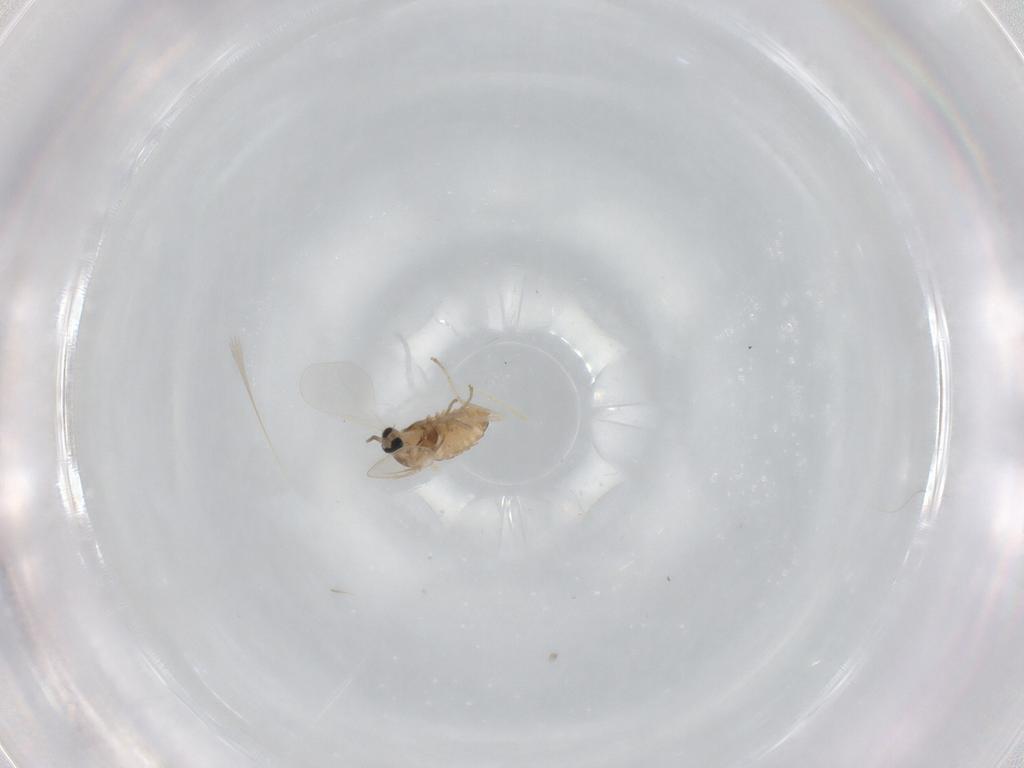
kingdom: Animalia
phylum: Arthropoda
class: Insecta
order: Diptera
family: Cecidomyiidae
